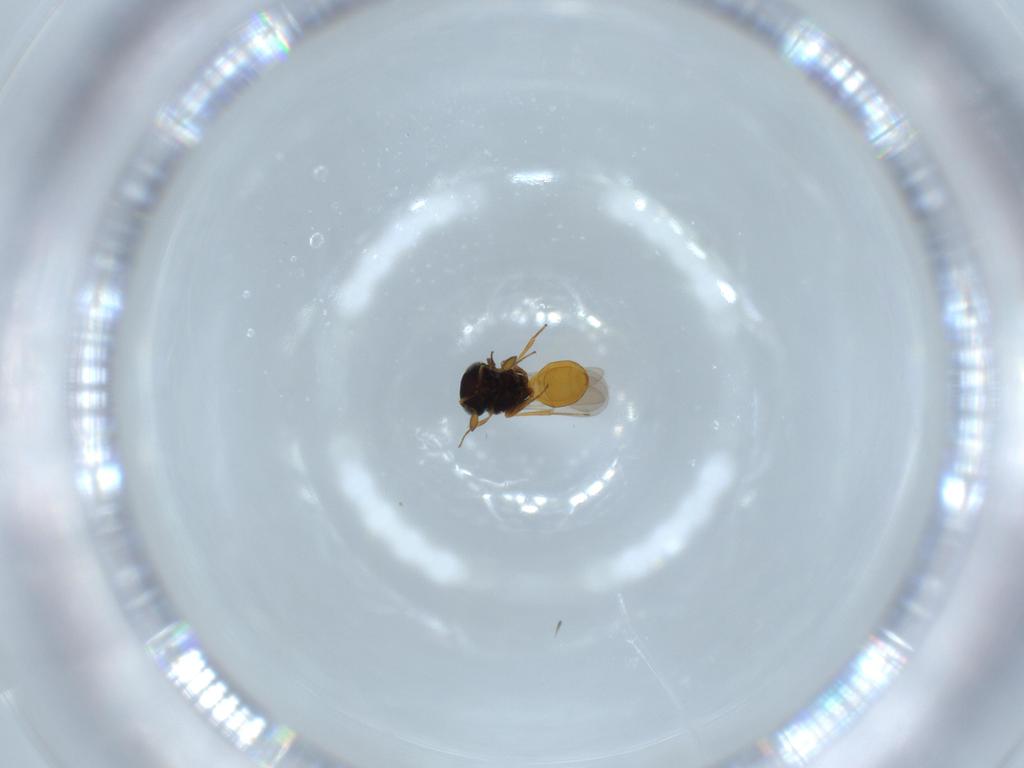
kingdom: Animalia
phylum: Arthropoda
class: Insecta
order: Hymenoptera
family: Scelionidae
